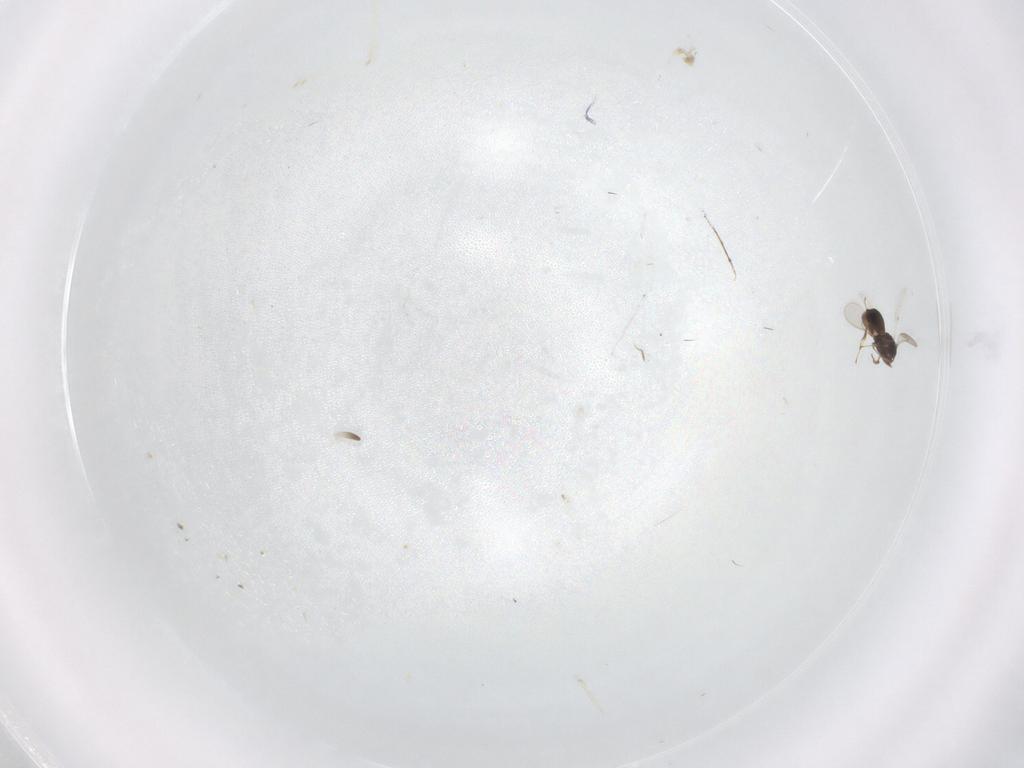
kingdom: Animalia
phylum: Arthropoda
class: Insecta
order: Hymenoptera
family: Scelionidae
